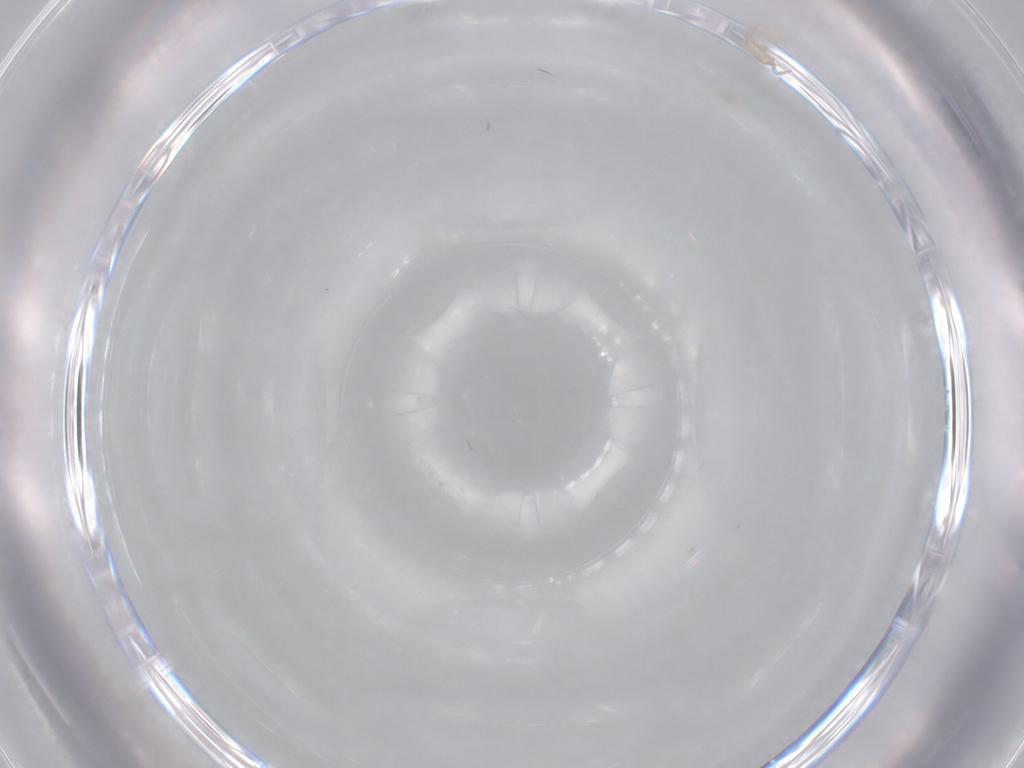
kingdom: Animalia
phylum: Arthropoda
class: Arachnida
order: Mesostigmata
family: Digamasellidae
